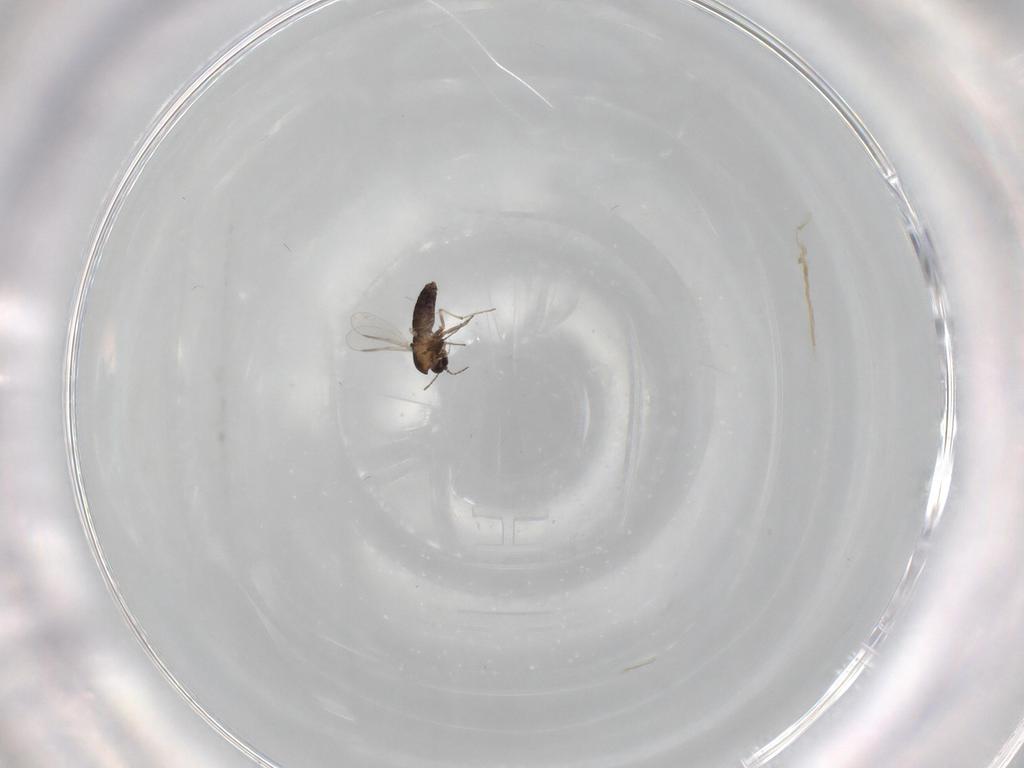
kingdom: Animalia
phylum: Arthropoda
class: Insecta
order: Diptera
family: Chironomidae
